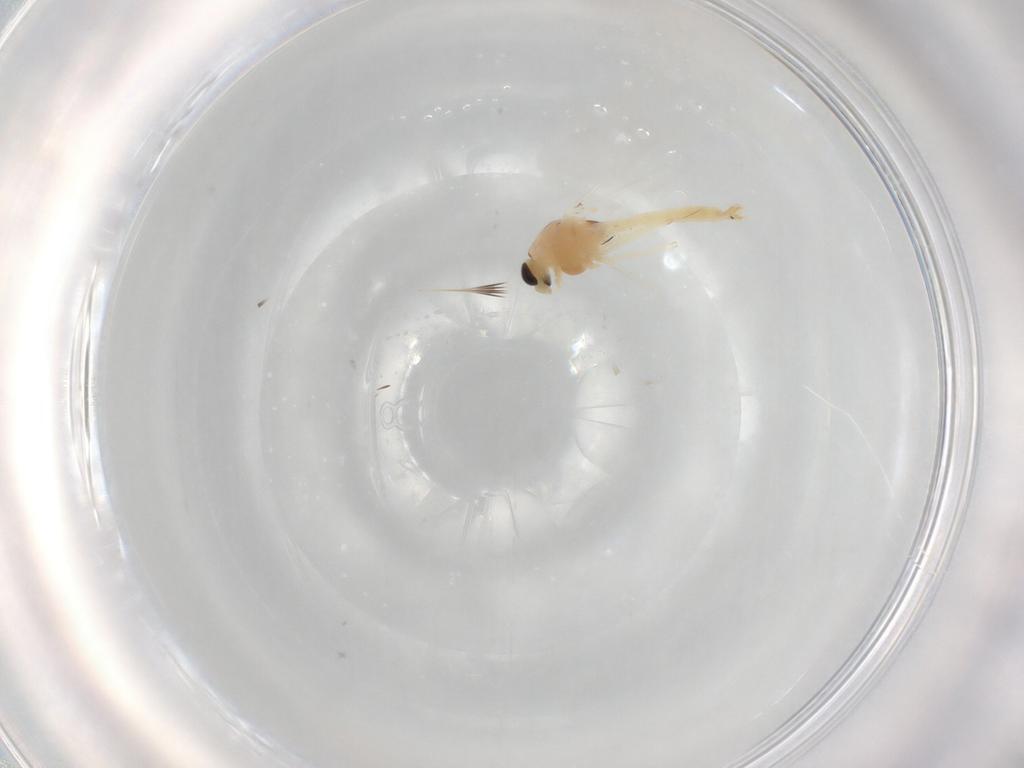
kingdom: Animalia
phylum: Arthropoda
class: Insecta
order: Diptera
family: Chironomidae
